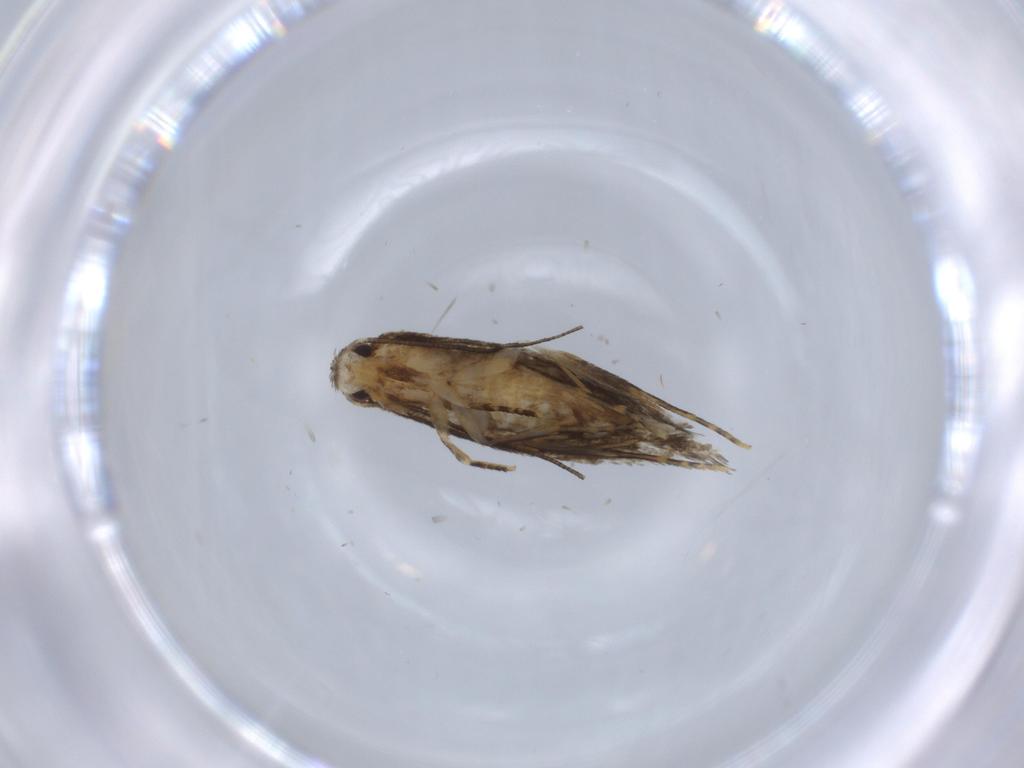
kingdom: Animalia
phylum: Arthropoda
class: Insecta
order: Lepidoptera
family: Tineidae
